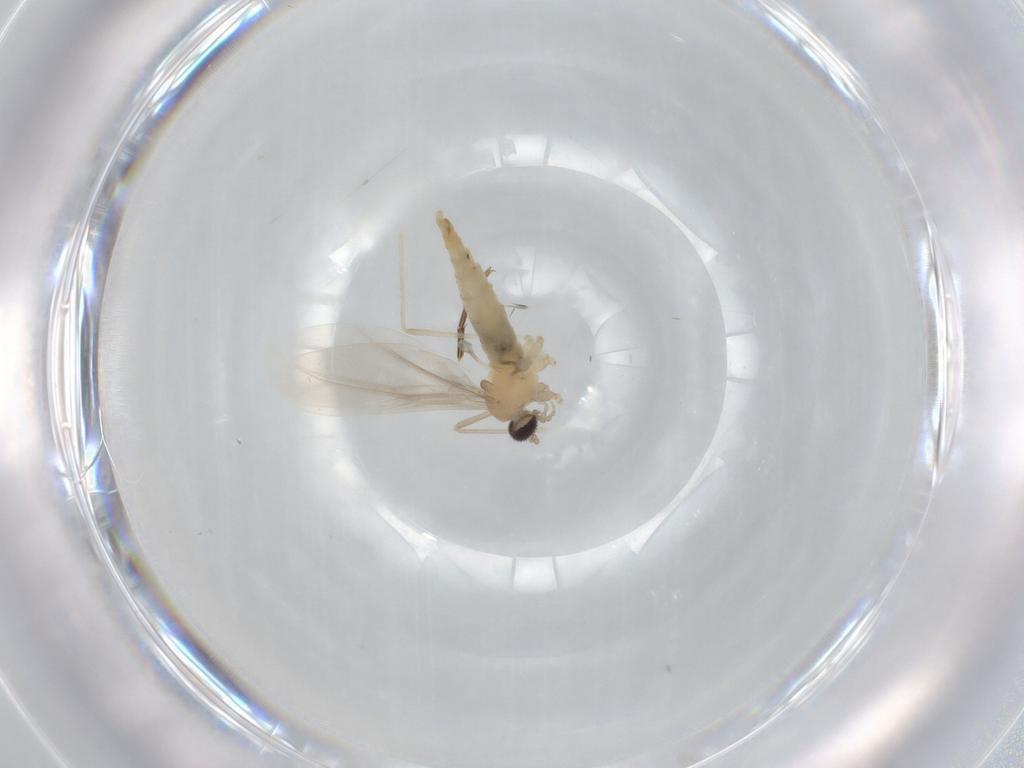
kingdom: Animalia
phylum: Arthropoda
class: Insecta
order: Diptera
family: Cecidomyiidae
